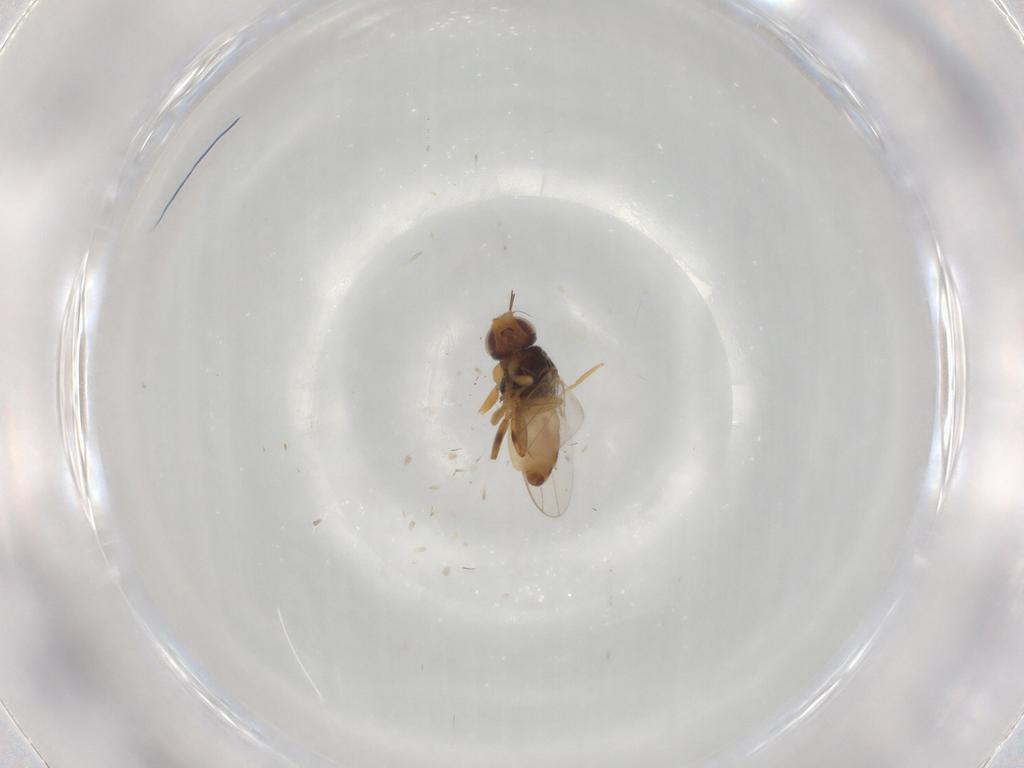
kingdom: Animalia
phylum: Arthropoda
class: Insecta
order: Diptera
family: Chloropidae
